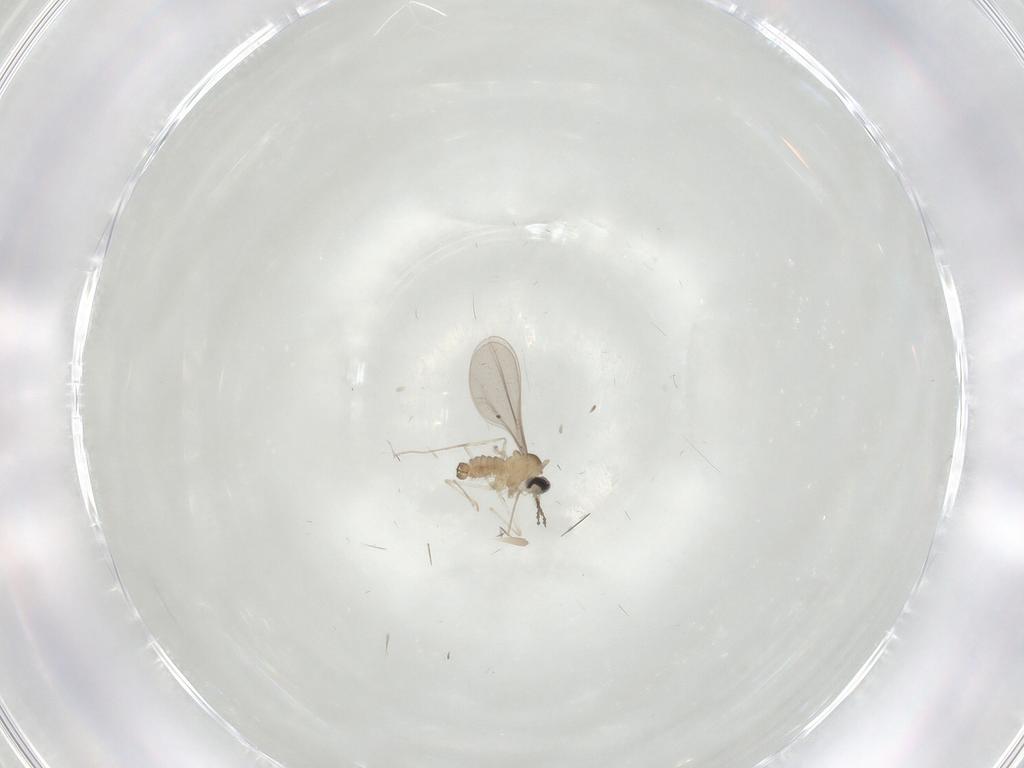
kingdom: Animalia
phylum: Arthropoda
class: Insecta
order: Diptera
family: Cecidomyiidae
